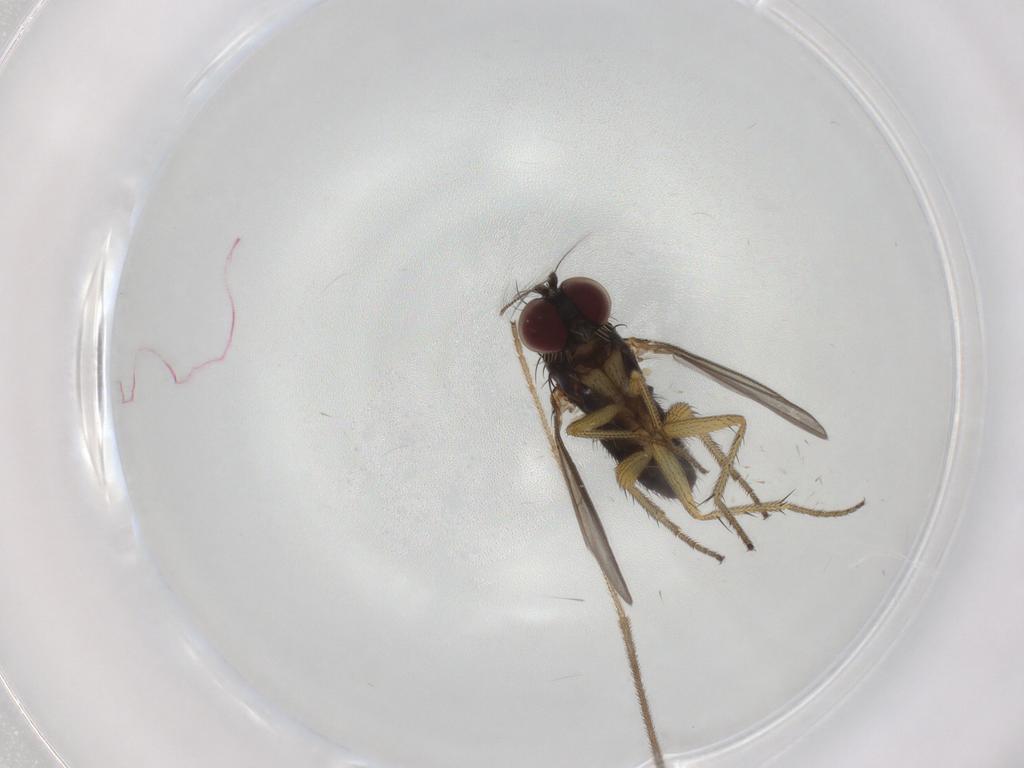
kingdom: Animalia
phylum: Arthropoda
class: Insecta
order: Diptera
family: Dolichopodidae
